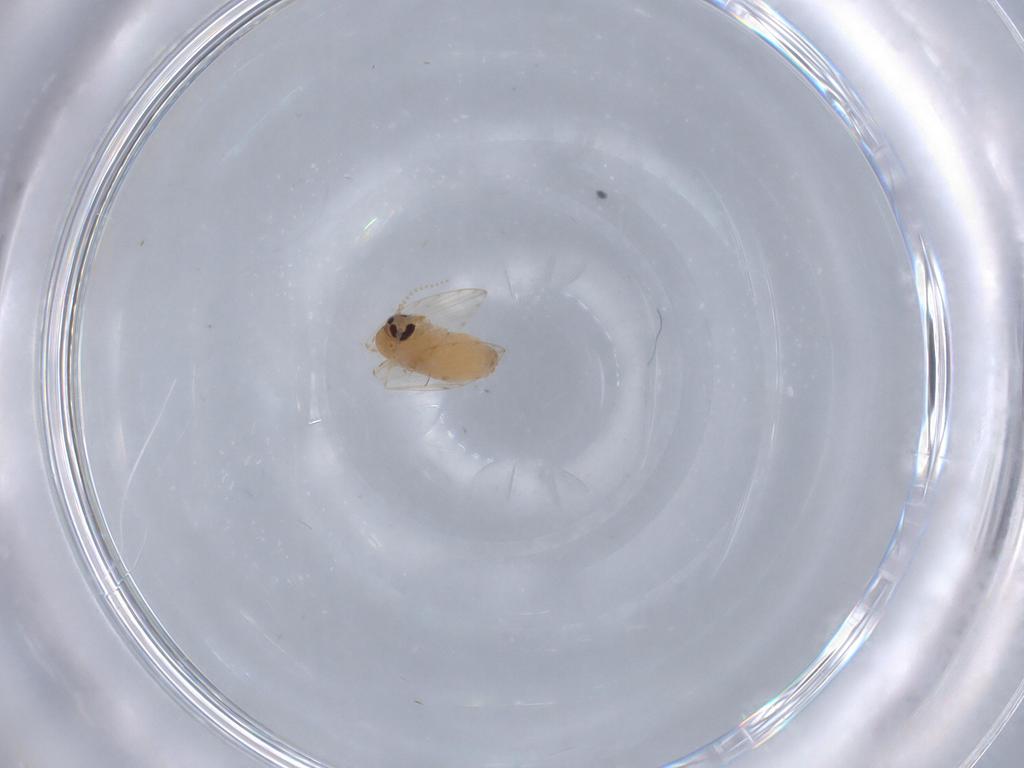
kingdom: Animalia
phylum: Arthropoda
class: Insecta
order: Diptera
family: Psychodidae
